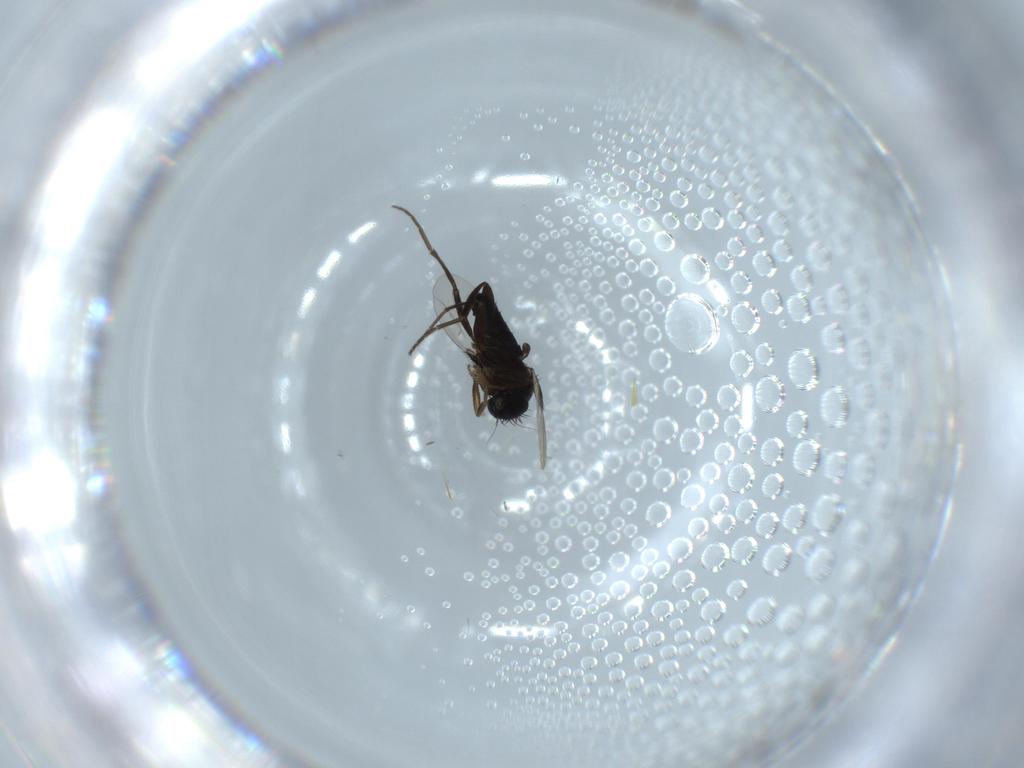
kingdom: Animalia
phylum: Arthropoda
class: Insecta
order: Diptera
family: Phoridae
